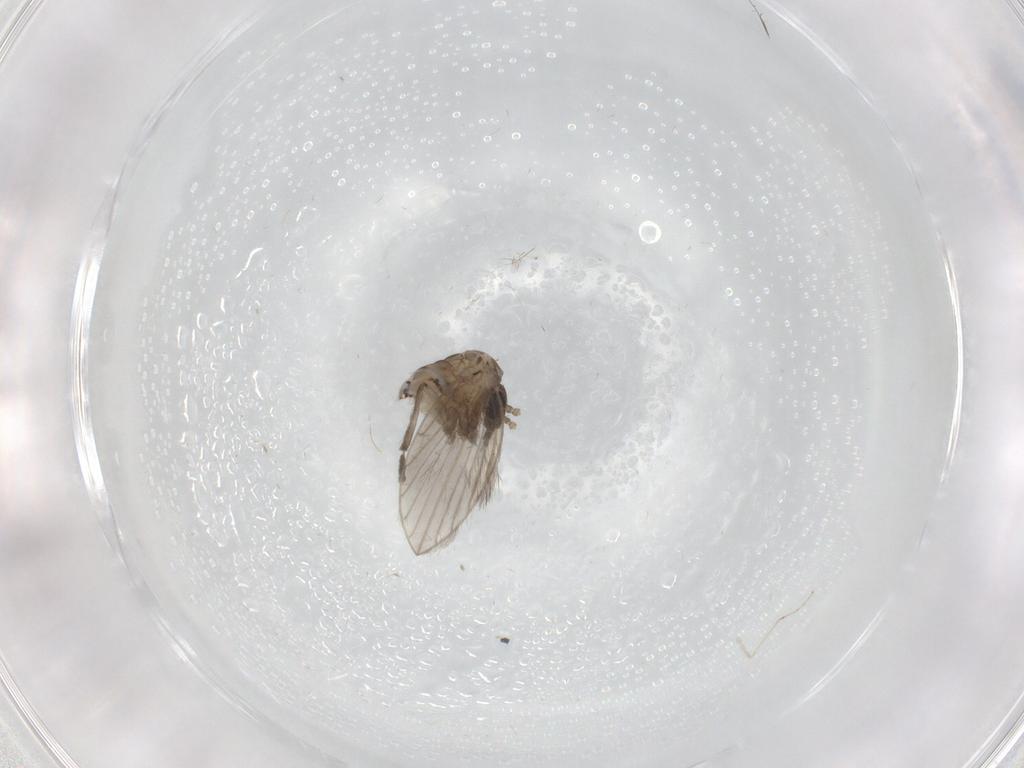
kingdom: Animalia
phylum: Arthropoda
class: Insecta
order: Diptera
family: Psychodidae
